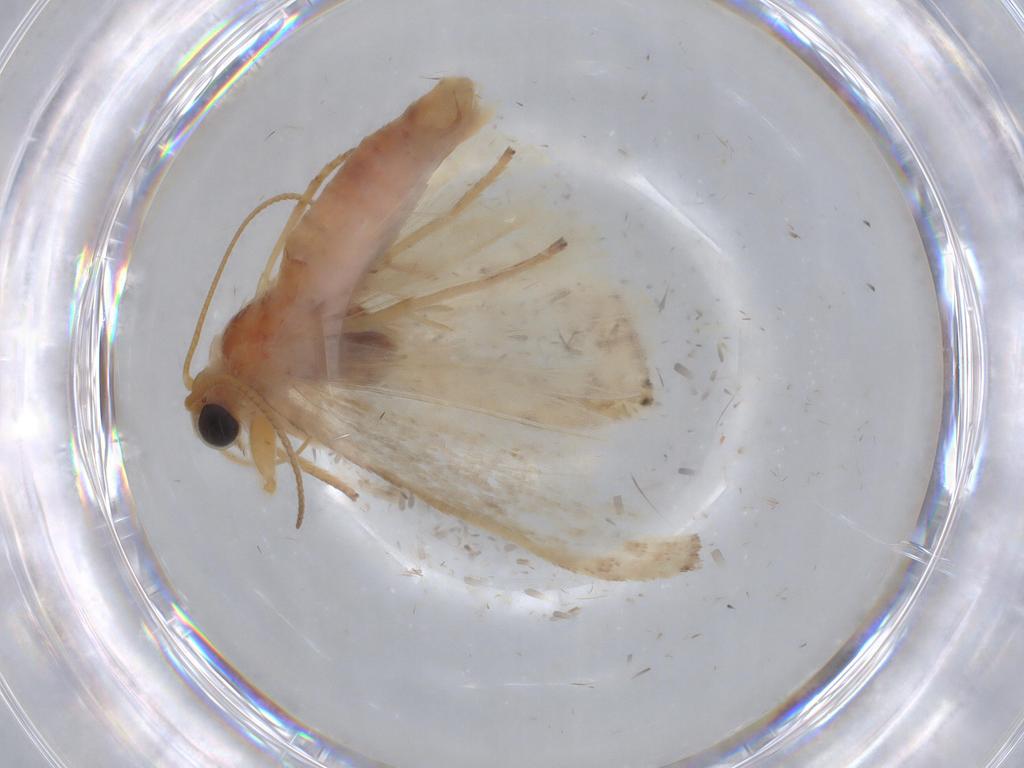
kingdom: Animalia
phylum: Arthropoda
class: Insecta
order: Lepidoptera
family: Pyralidae
